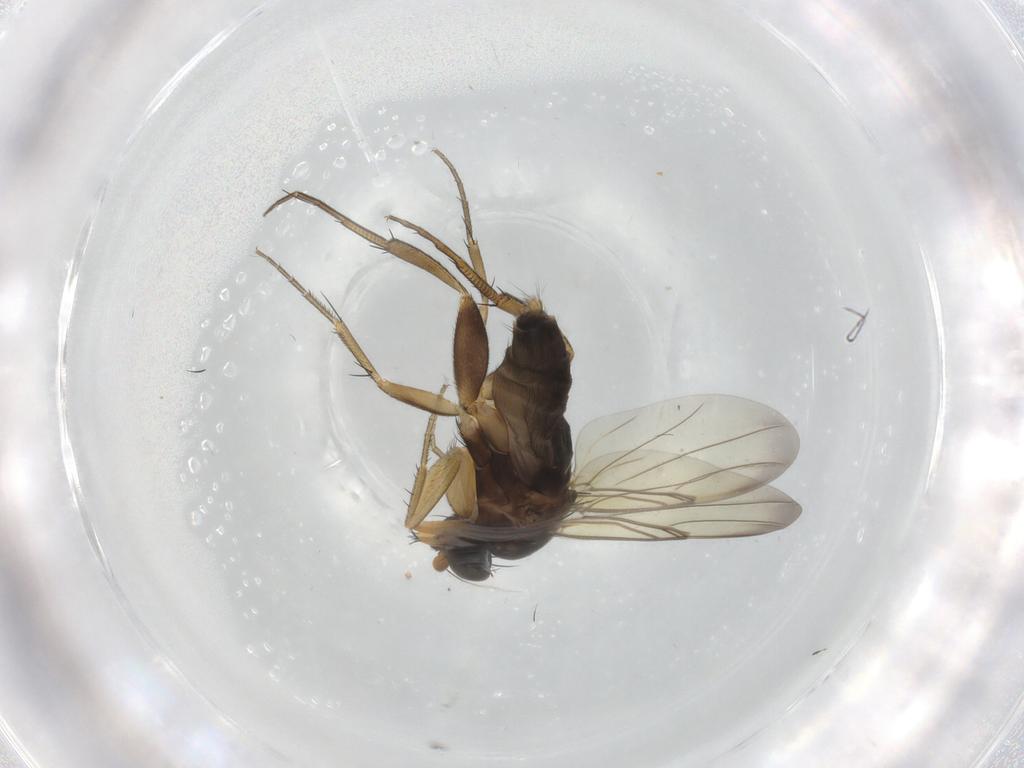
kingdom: Animalia
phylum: Arthropoda
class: Insecta
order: Diptera
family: Phoridae
